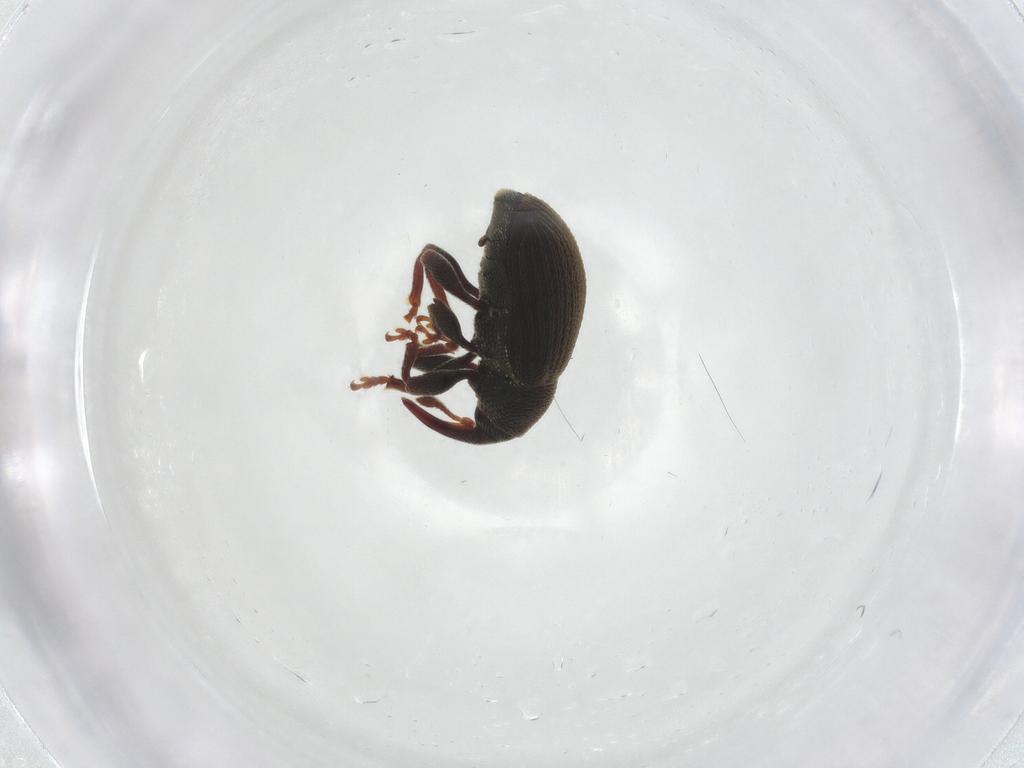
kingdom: Animalia
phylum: Arthropoda
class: Insecta
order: Coleoptera
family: Curculionidae
